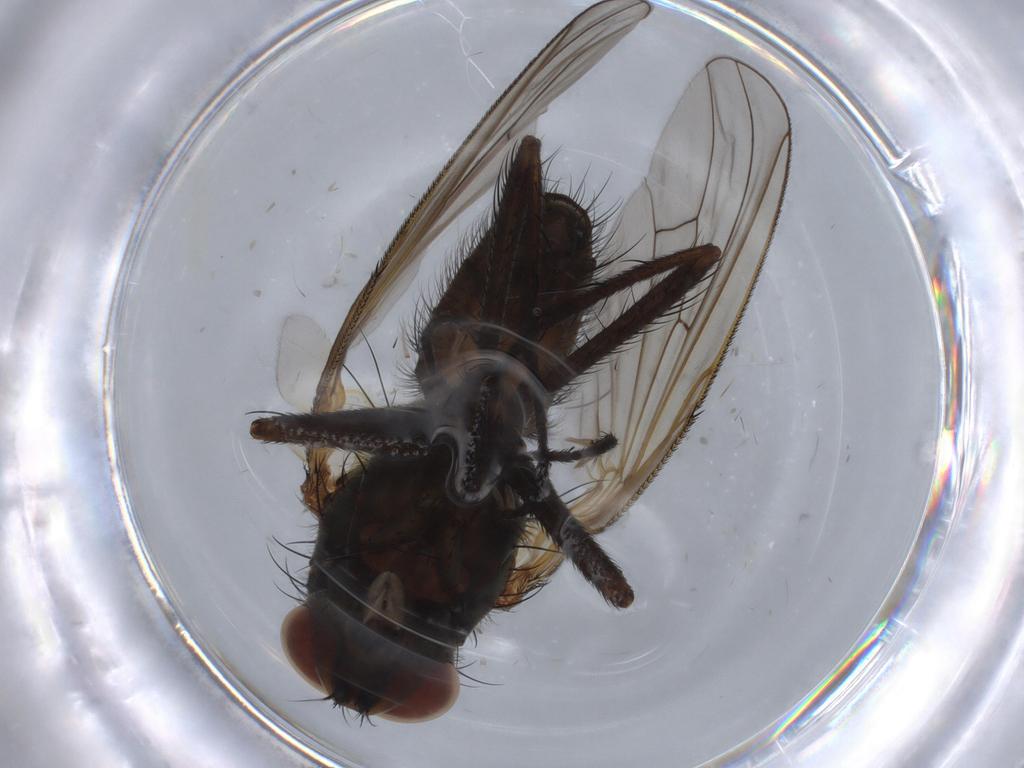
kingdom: Animalia
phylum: Arthropoda
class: Insecta
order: Diptera
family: Anthomyiidae
